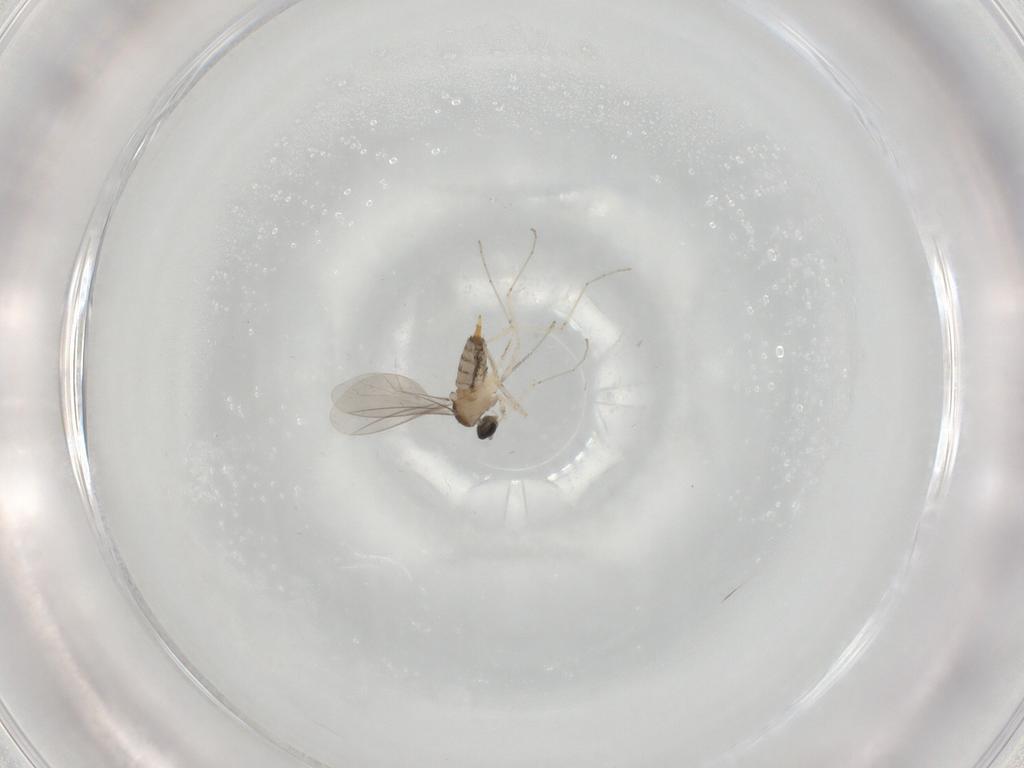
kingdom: Animalia
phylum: Arthropoda
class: Insecta
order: Diptera
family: Cecidomyiidae
